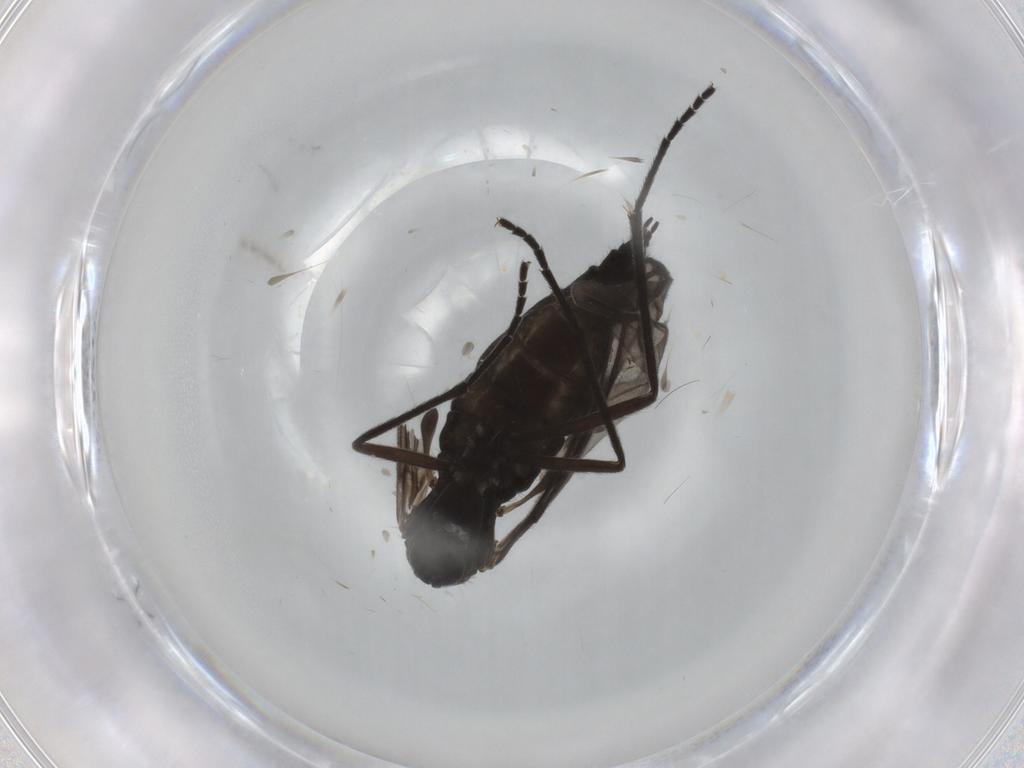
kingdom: Animalia
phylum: Arthropoda
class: Insecta
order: Diptera
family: Sciaridae
